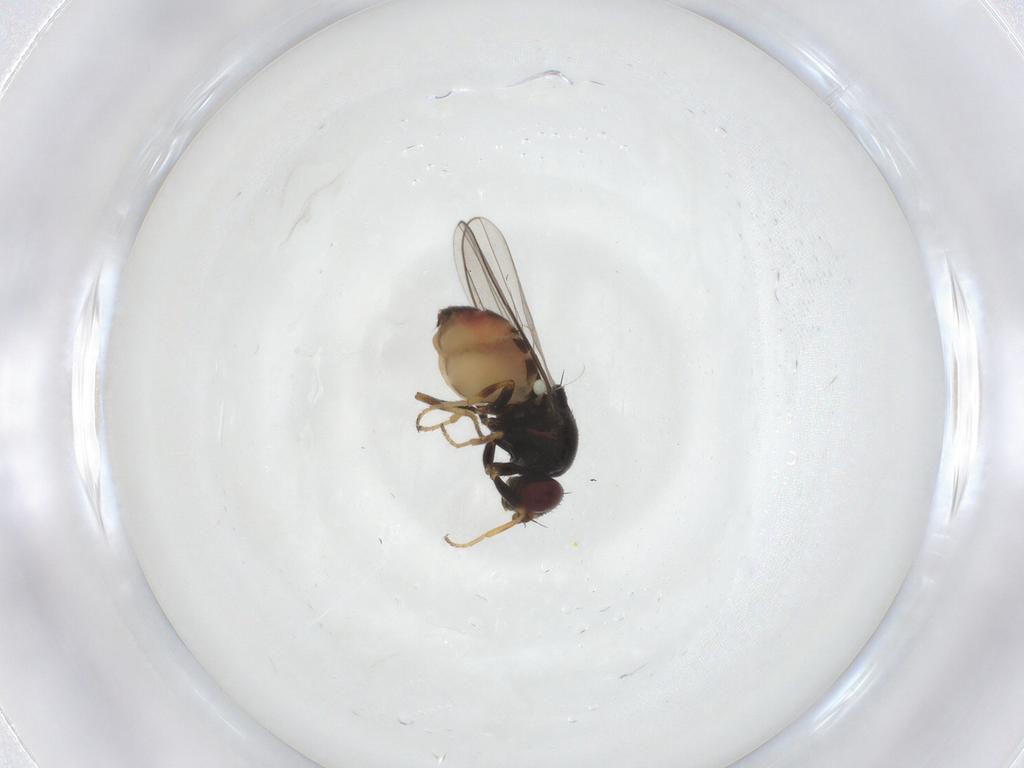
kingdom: Animalia
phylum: Arthropoda
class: Insecta
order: Diptera
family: Chloropidae
